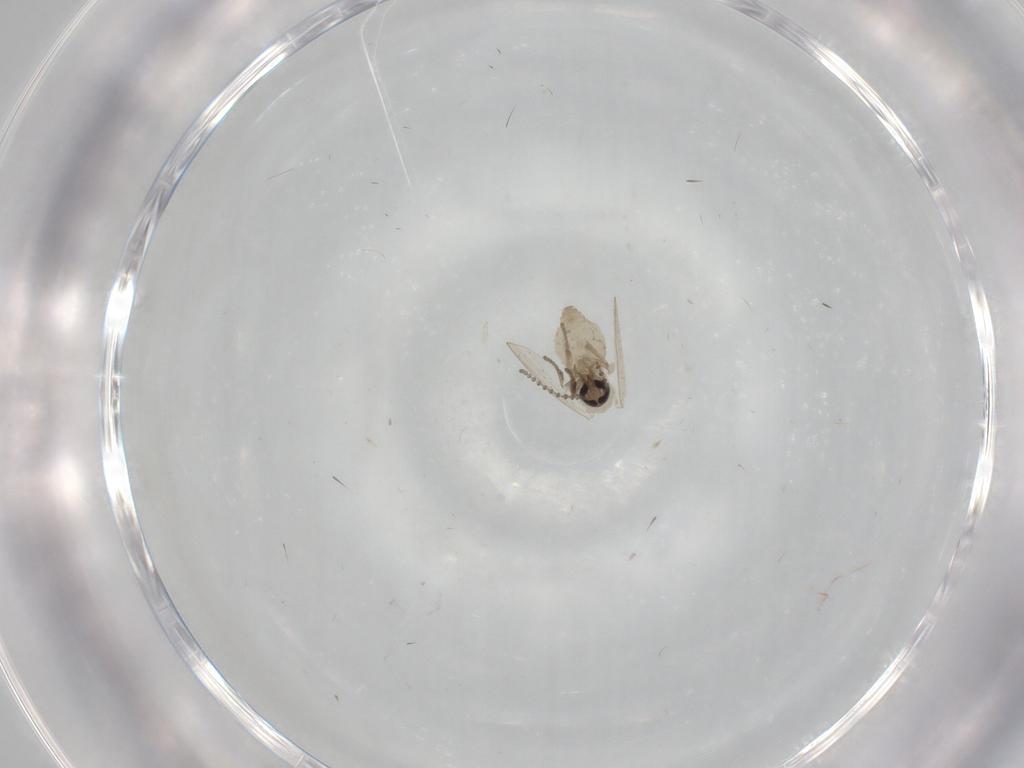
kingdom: Animalia
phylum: Arthropoda
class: Insecta
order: Diptera
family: Psychodidae
